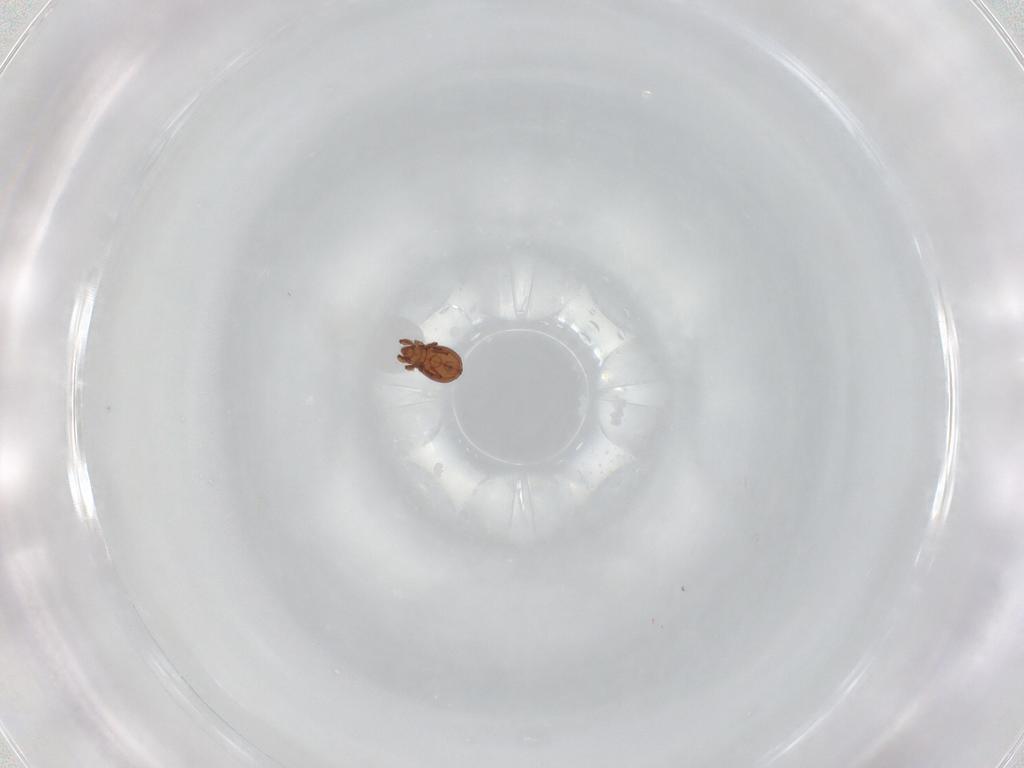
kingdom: Animalia
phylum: Arthropoda
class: Arachnida
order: Sarcoptiformes
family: Eremaeidae
